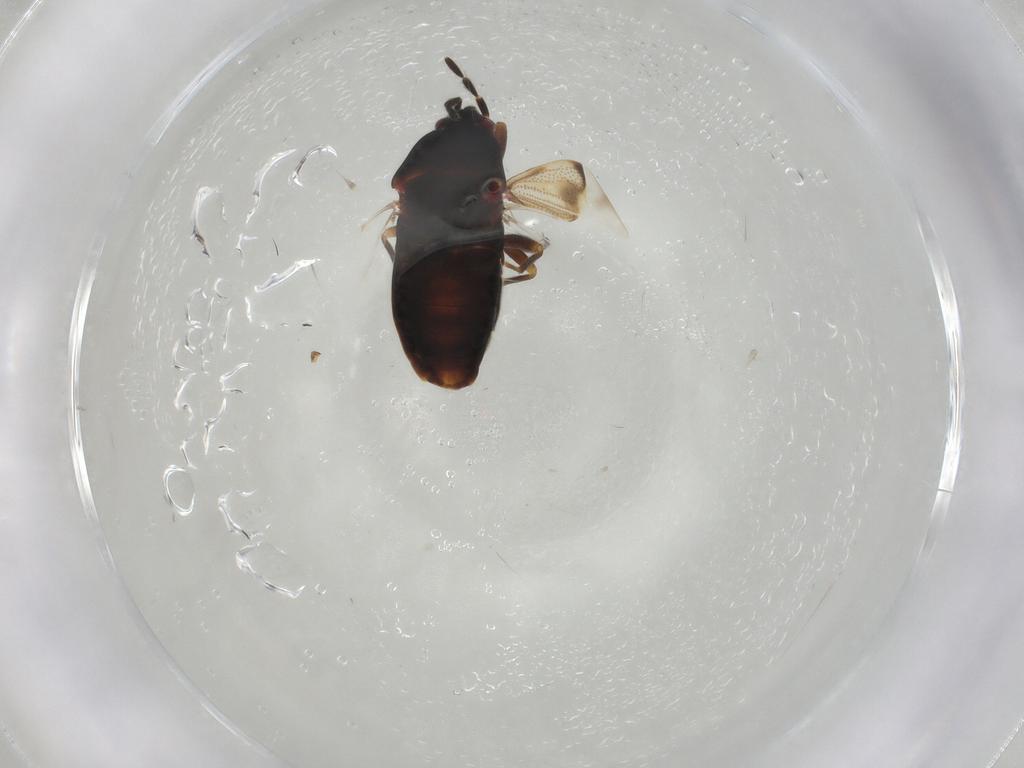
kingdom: Animalia
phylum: Arthropoda
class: Insecta
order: Hemiptera
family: Rhyparochromidae
